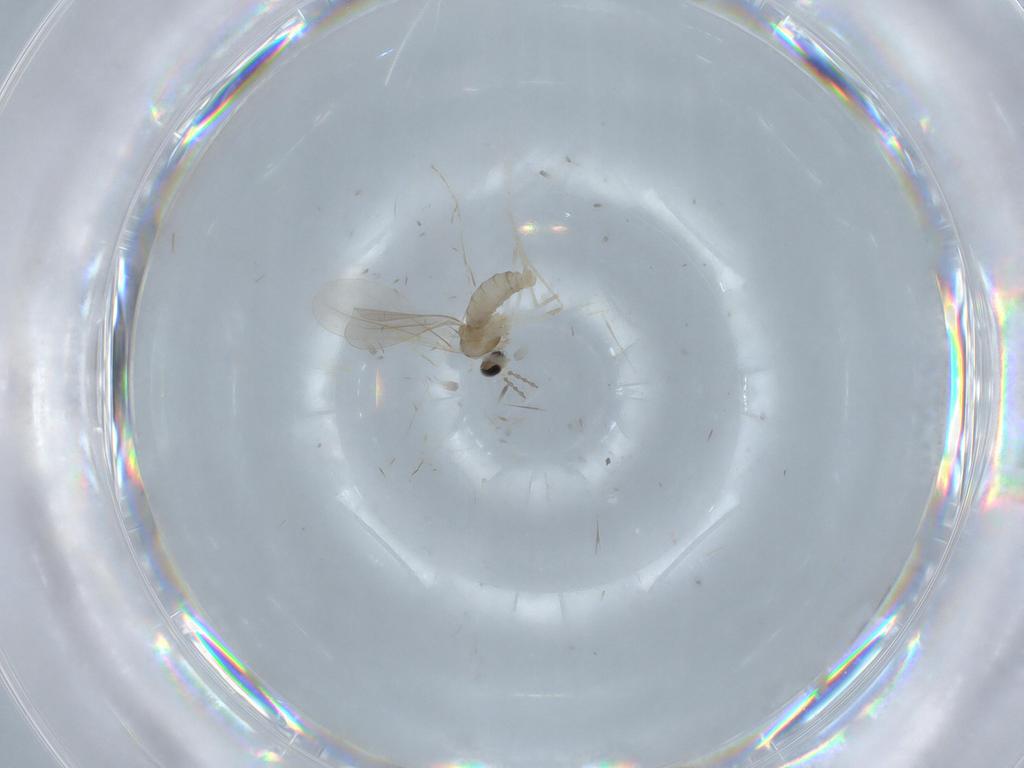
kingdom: Animalia
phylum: Arthropoda
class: Insecta
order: Diptera
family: Cecidomyiidae
